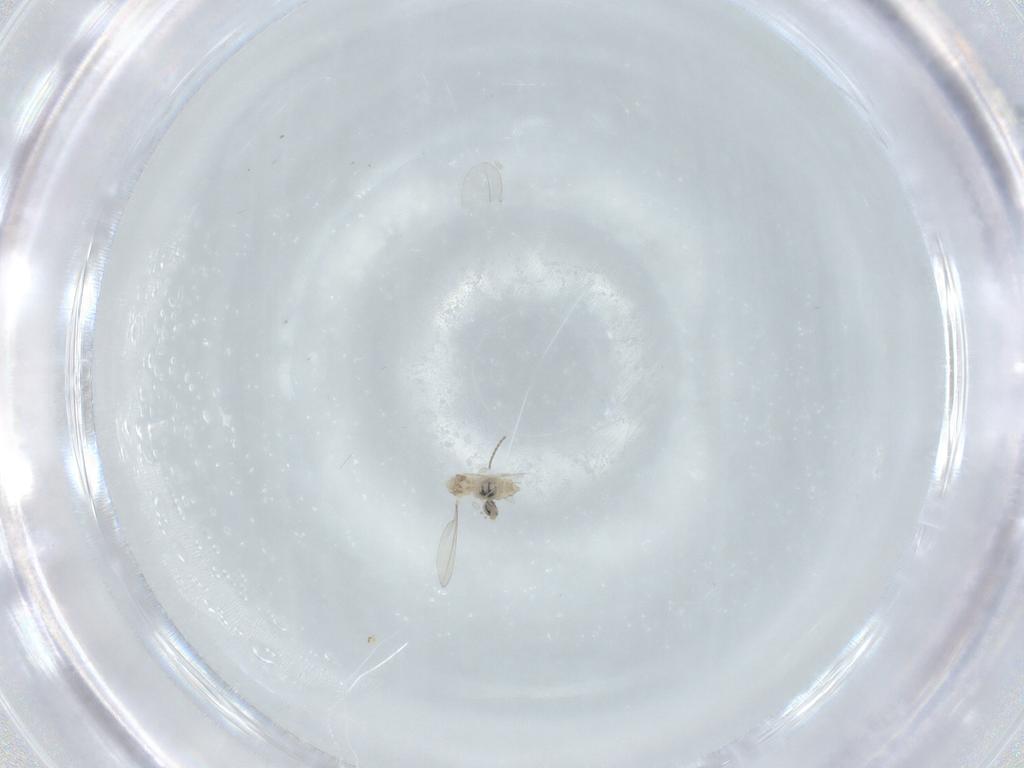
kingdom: Animalia
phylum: Arthropoda
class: Insecta
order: Diptera
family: Cecidomyiidae
